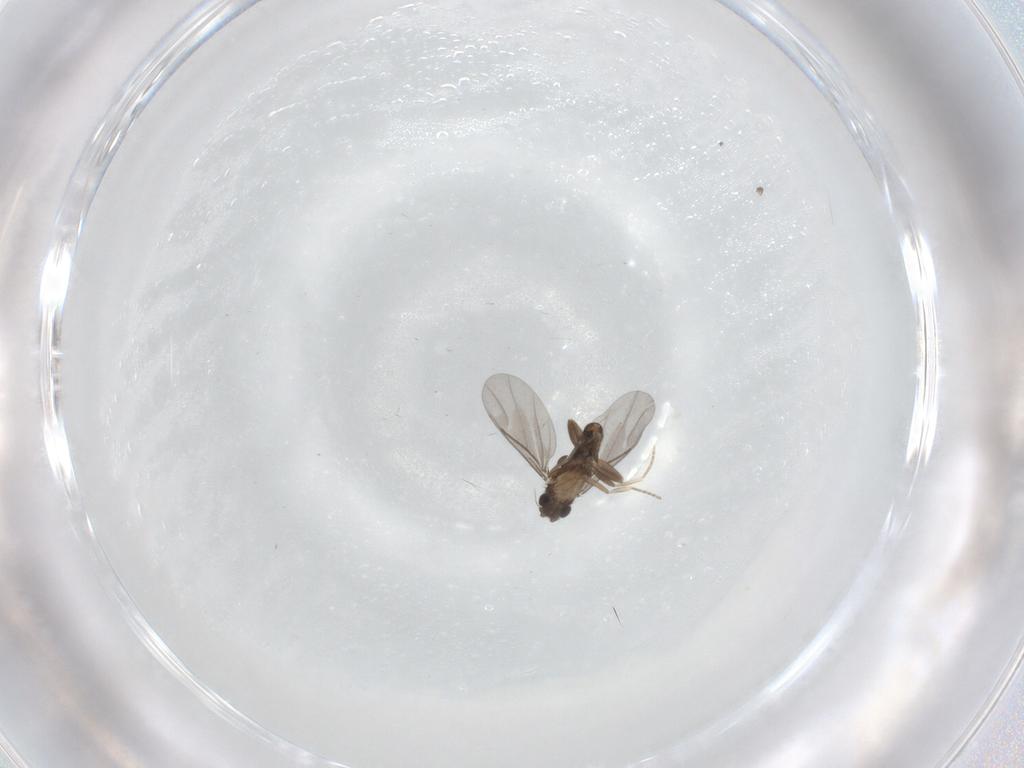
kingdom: Animalia
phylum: Arthropoda
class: Insecta
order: Diptera
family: Phoridae
